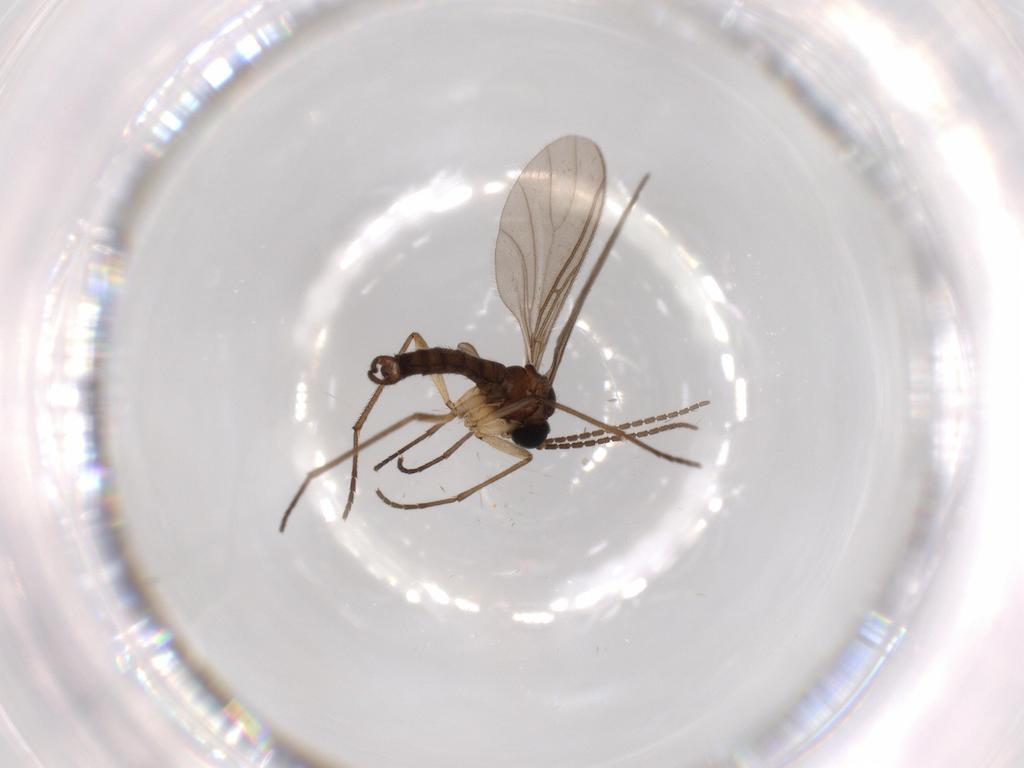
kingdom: Animalia
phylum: Arthropoda
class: Insecta
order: Diptera
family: Sciaridae
